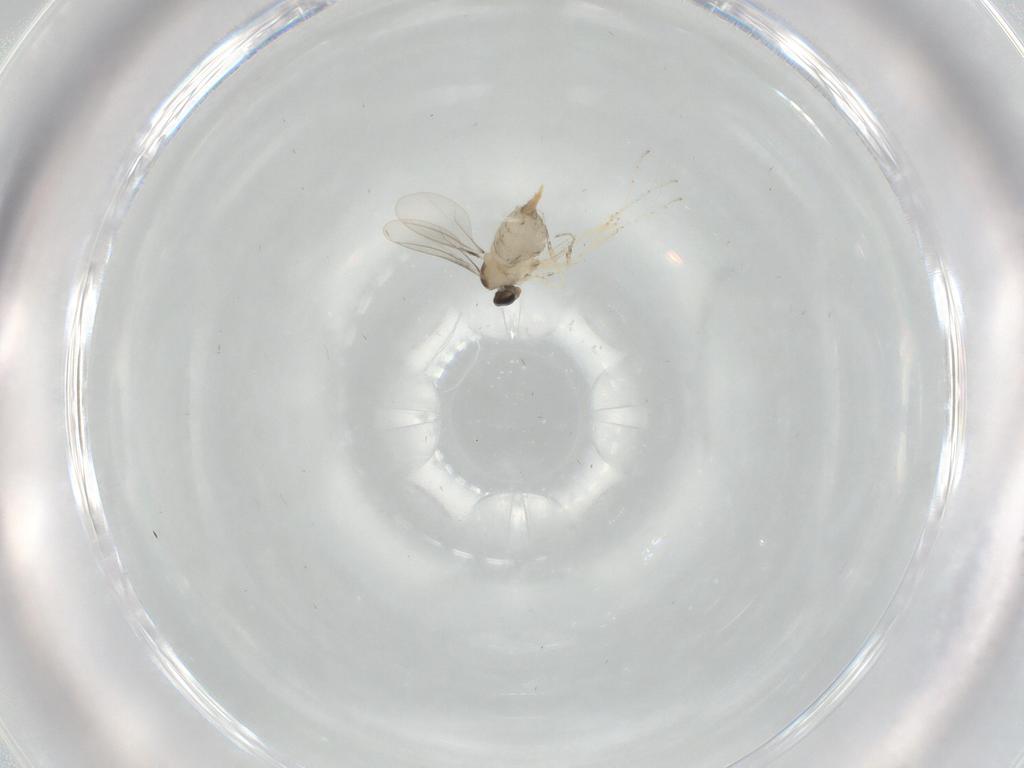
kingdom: Animalia
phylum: Arthropoda
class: Insecta
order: Diptera
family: Cecidomyiidae
